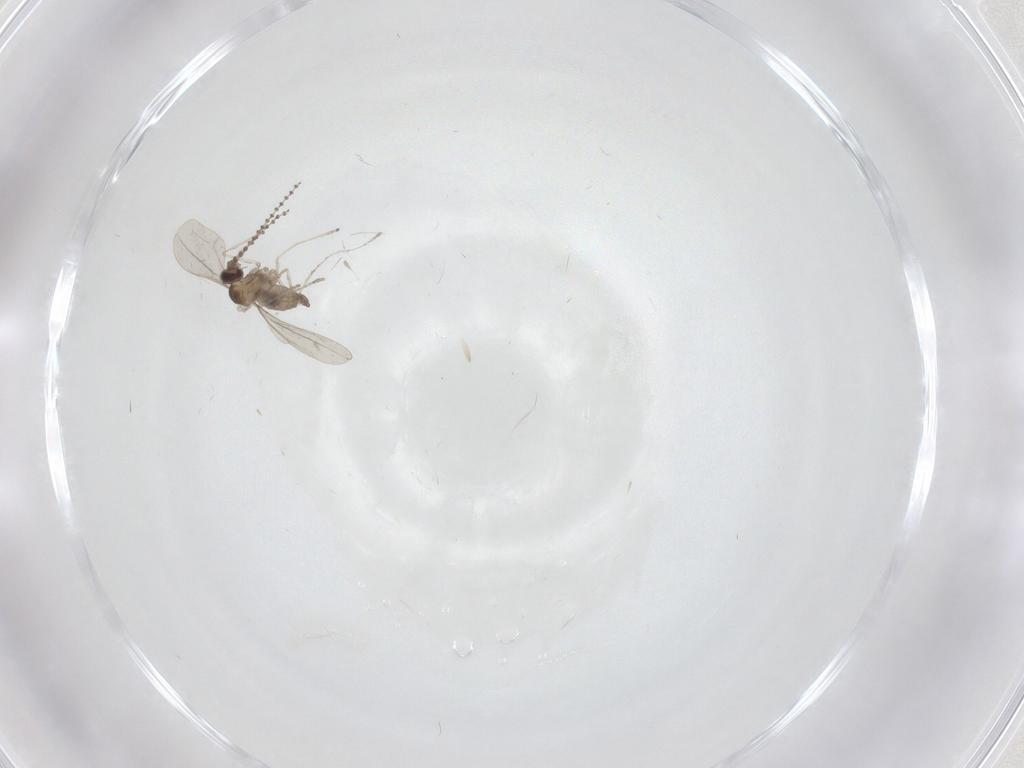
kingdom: Animalia
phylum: Arthropoda
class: Insecta
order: Diptera
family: Cecidomyiidae
